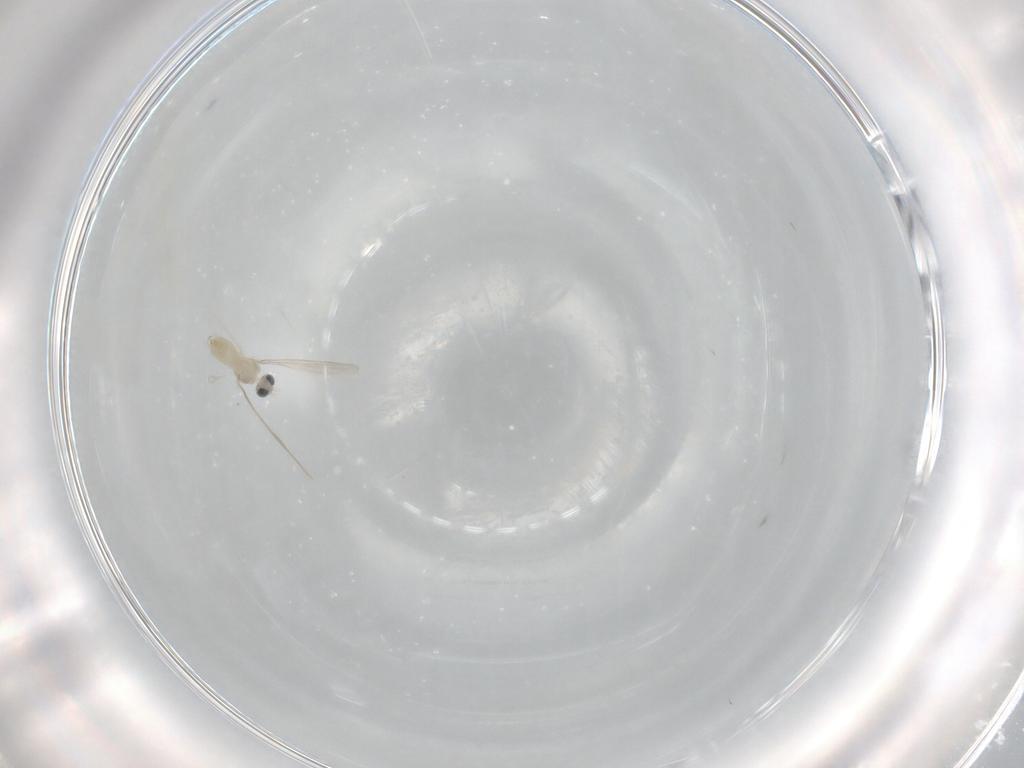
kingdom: Animalia
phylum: Arthropoda
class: Insecta
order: Diptera
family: Cecidomyiidae
